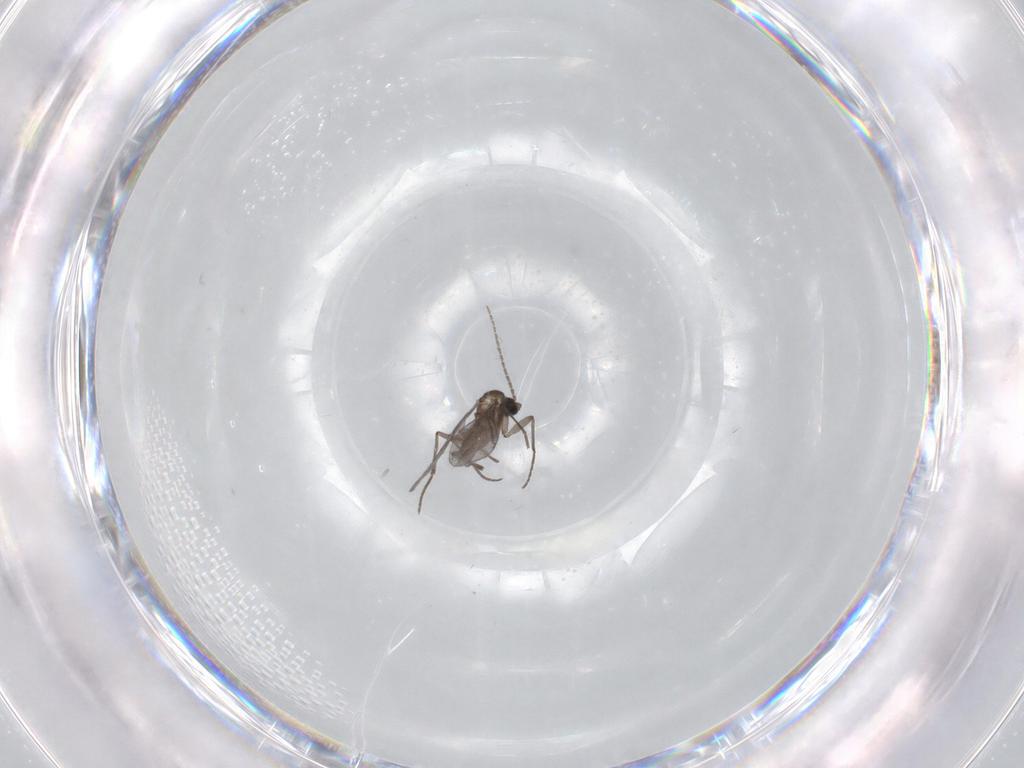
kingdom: Animalia
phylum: Arthropoda
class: Insecta
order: Diptera
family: Sciaridae
